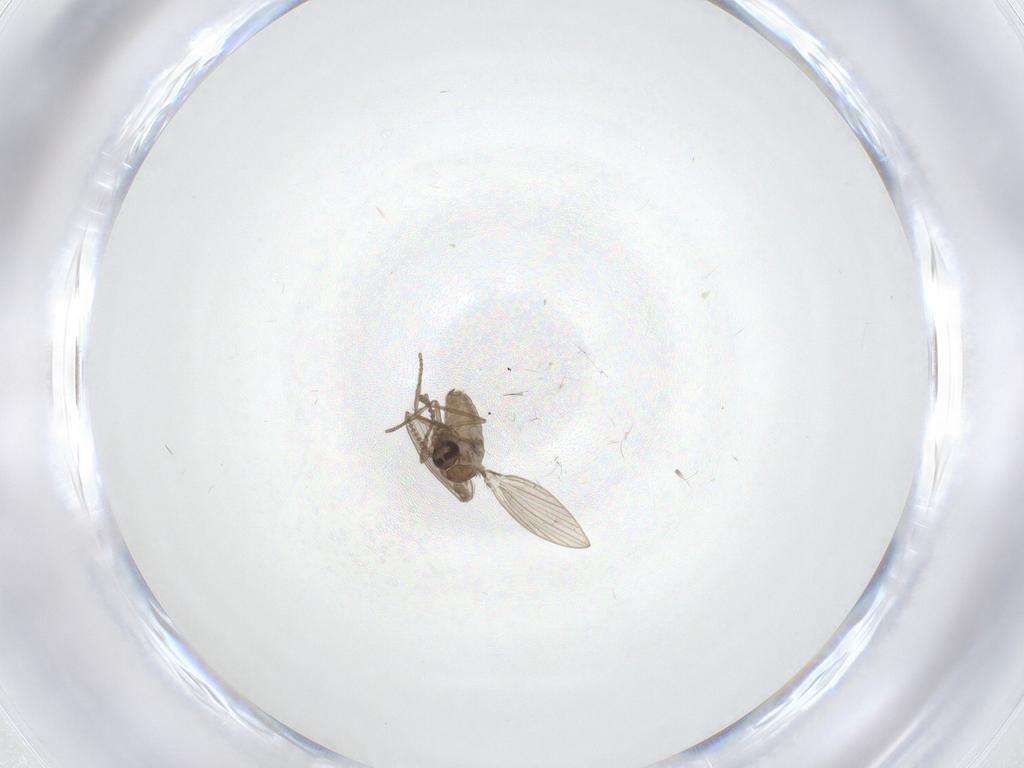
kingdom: Animalia
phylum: Arthropoda
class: Insecta
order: Diptera
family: Psychodidae
